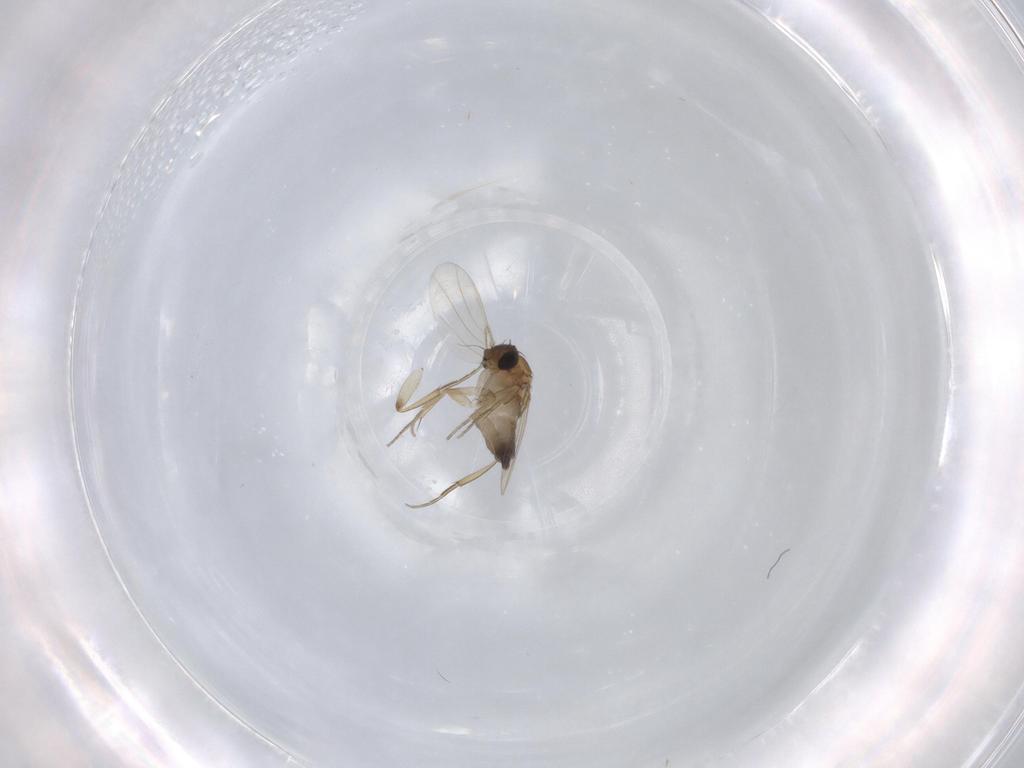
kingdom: Animalia
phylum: Arthropoda
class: Insecta
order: Diptera
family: Phoridae
